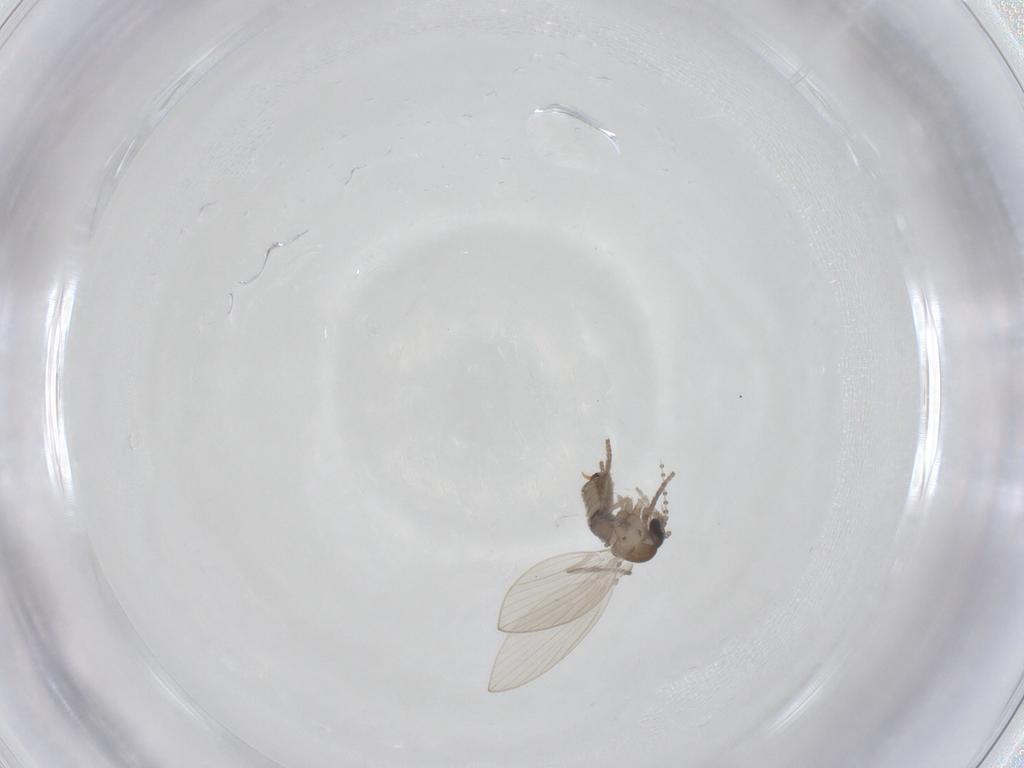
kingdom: Animalia
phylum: Arthropoda
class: Insecta
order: Diptera
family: Psychodidae
